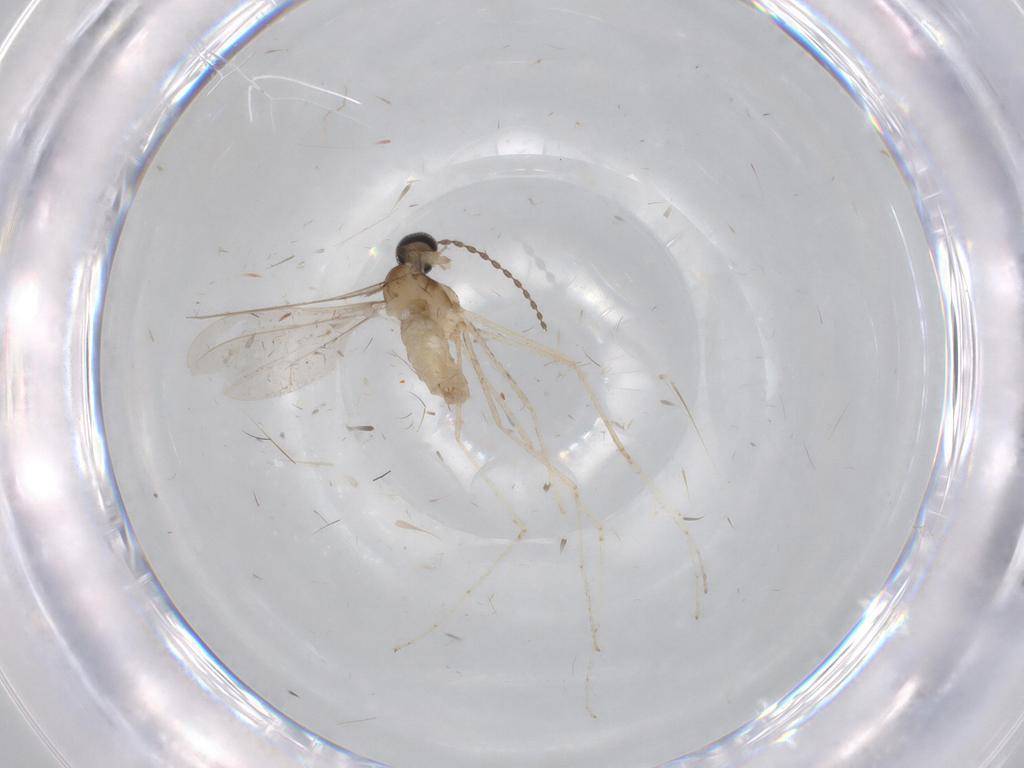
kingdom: Animalia
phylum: Arthropoda
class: Insecta
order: Diptera
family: Cecidomyiidae
